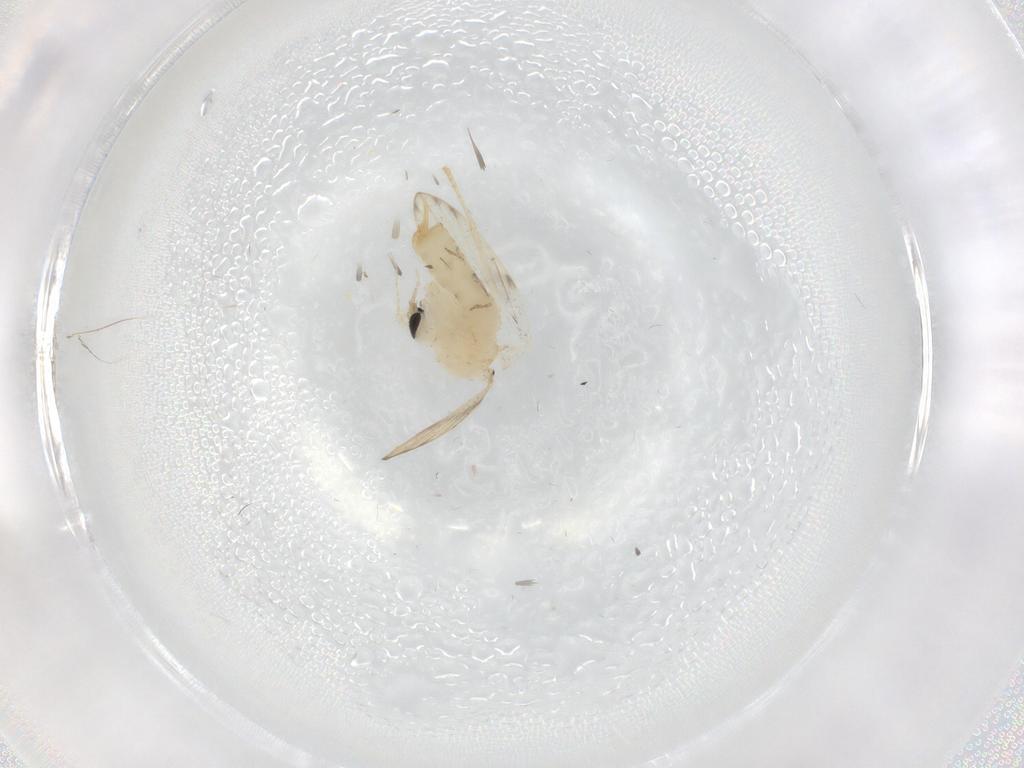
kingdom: Animalia
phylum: Arthropoda
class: Insecta
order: Diptera
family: Psychodidae
